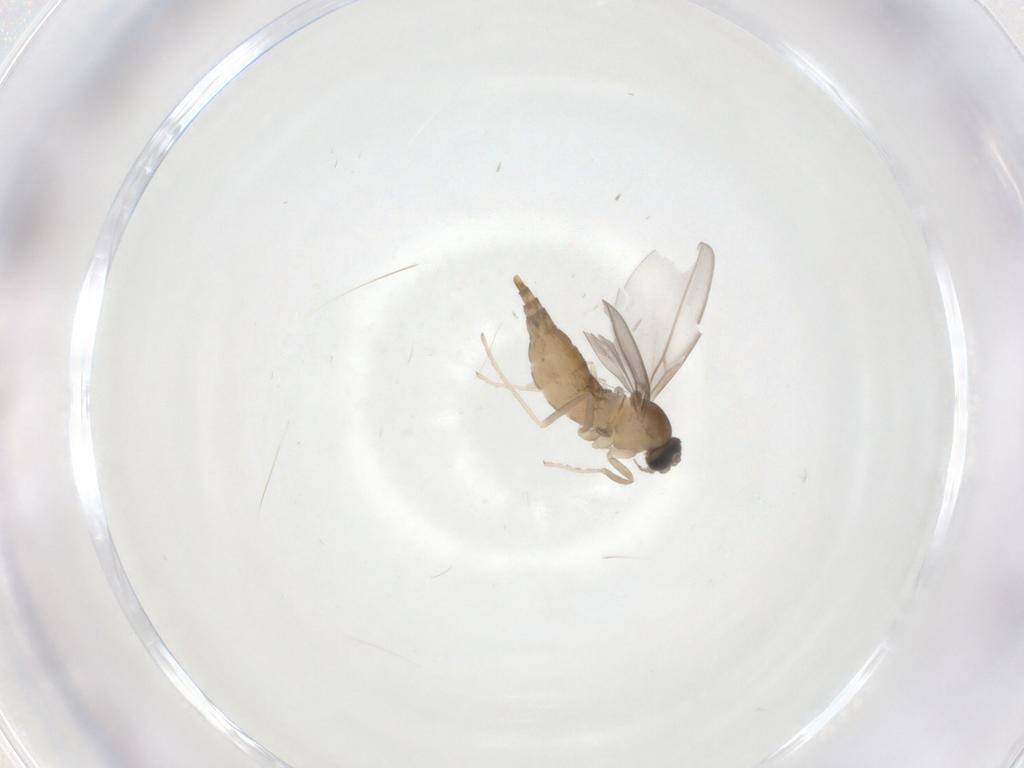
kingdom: Animalia
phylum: Arthropoda
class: Insecta
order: Diptera
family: Cecidomyiidae
